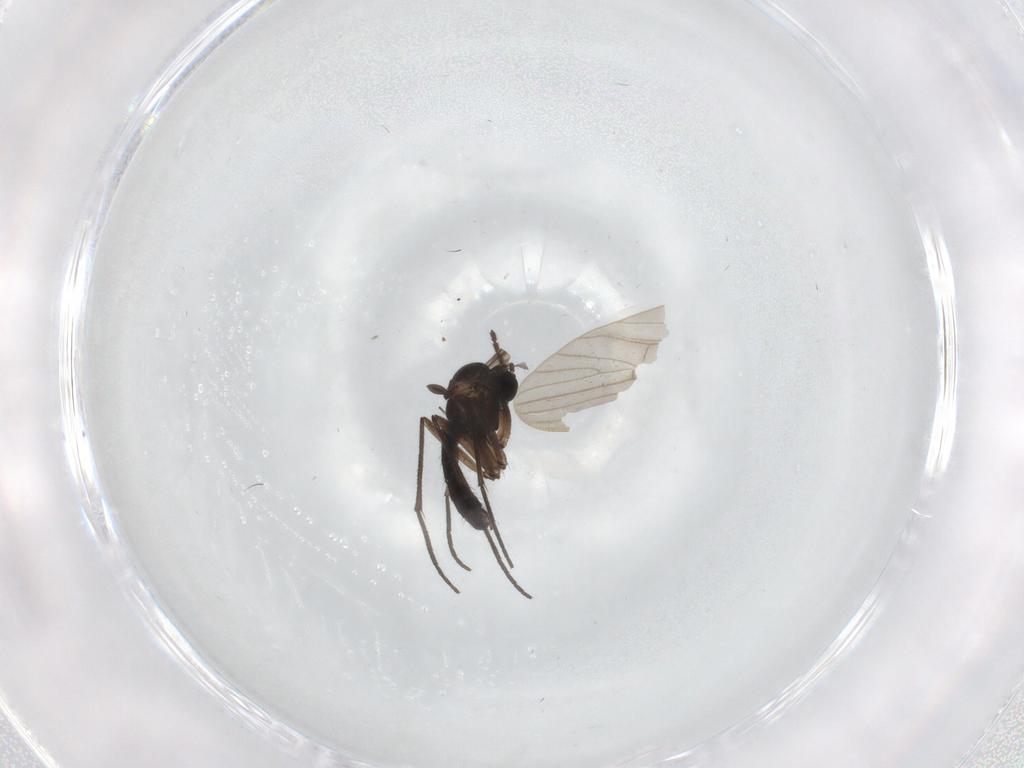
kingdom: Animalia
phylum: Arthropoda
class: Insecta
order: Diptera
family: Sciaridae
